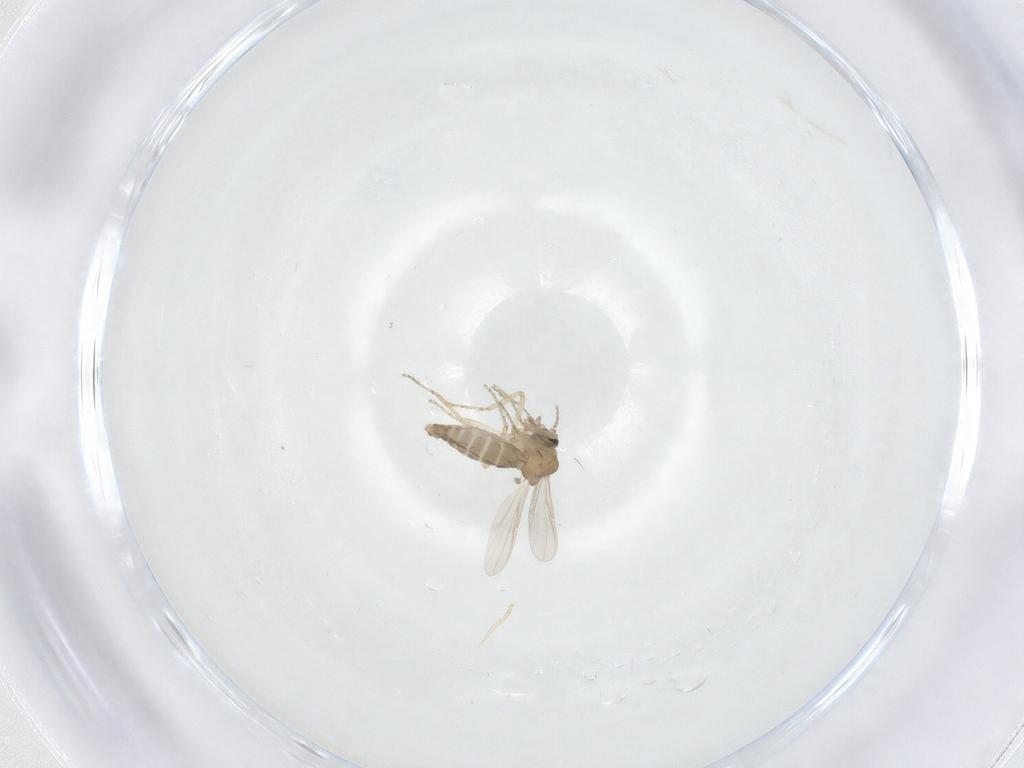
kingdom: Animalia
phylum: Arthropoda
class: Insecta
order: Diptera
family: Ceratopogonidae
